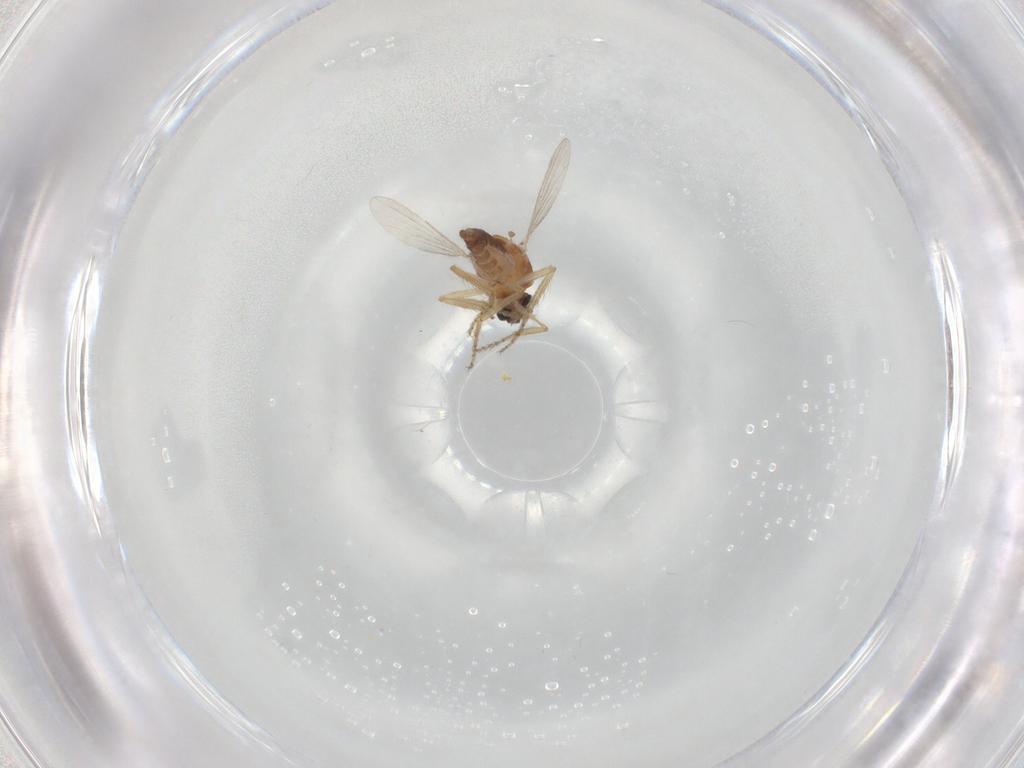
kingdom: Animalia
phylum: Arthropoda
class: Insecta
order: Diptera
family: Ceratopogonidae
